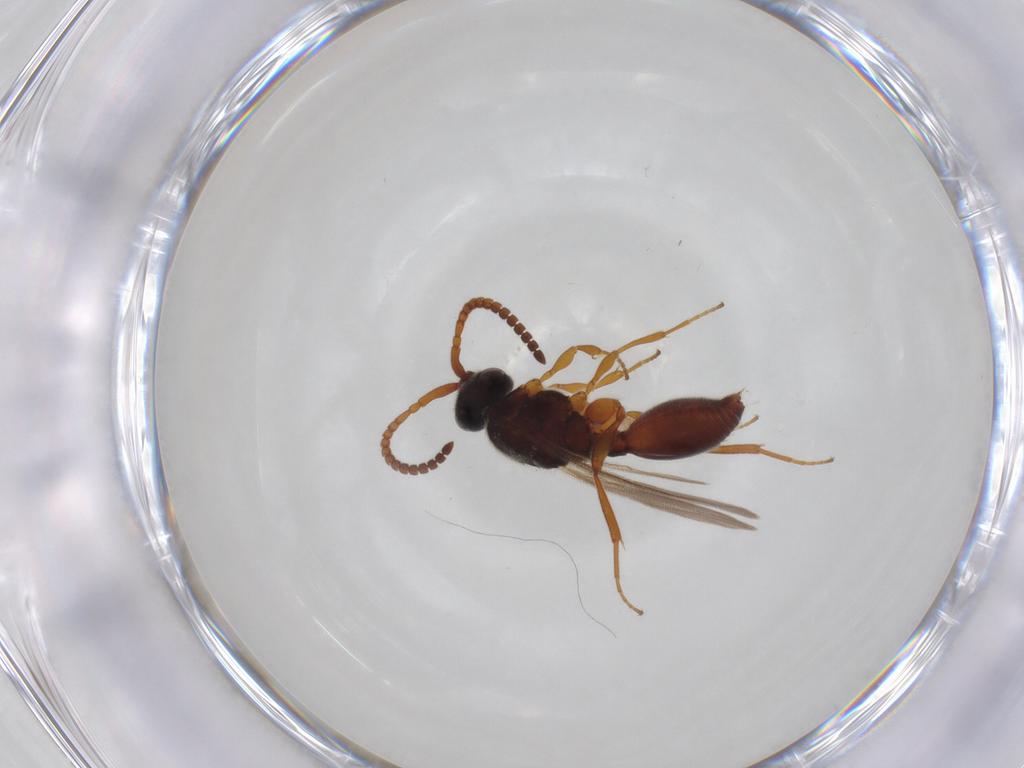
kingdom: Animalia
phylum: Arthropoda
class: Insecta
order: Hymenoptera
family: Diapriidae
